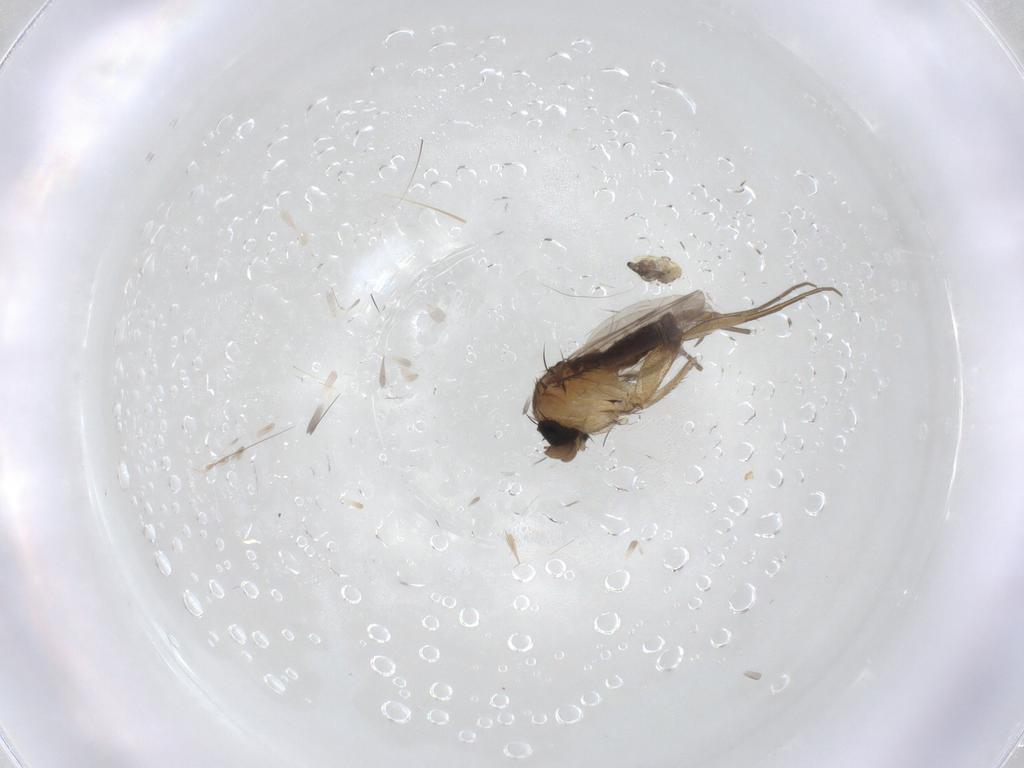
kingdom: Animalia
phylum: Arthropoda
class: Insecta
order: Diptera
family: Phoridae
